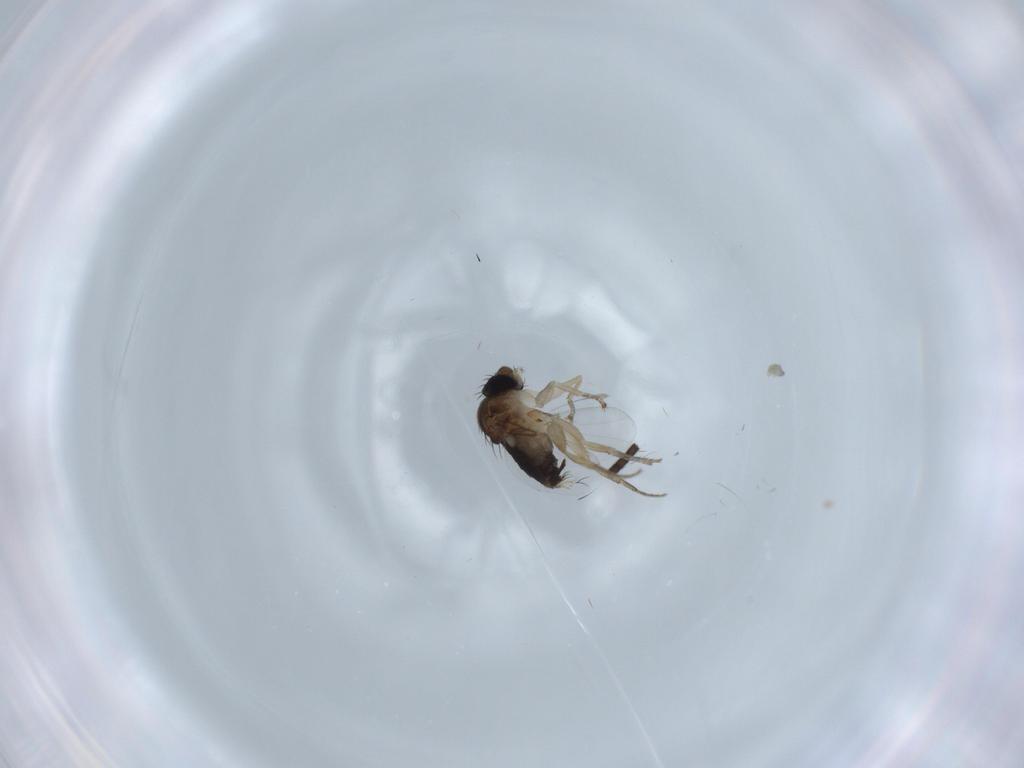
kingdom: Animalia
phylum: Arthropoda
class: Insecta
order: Diptera
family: Phoridae
